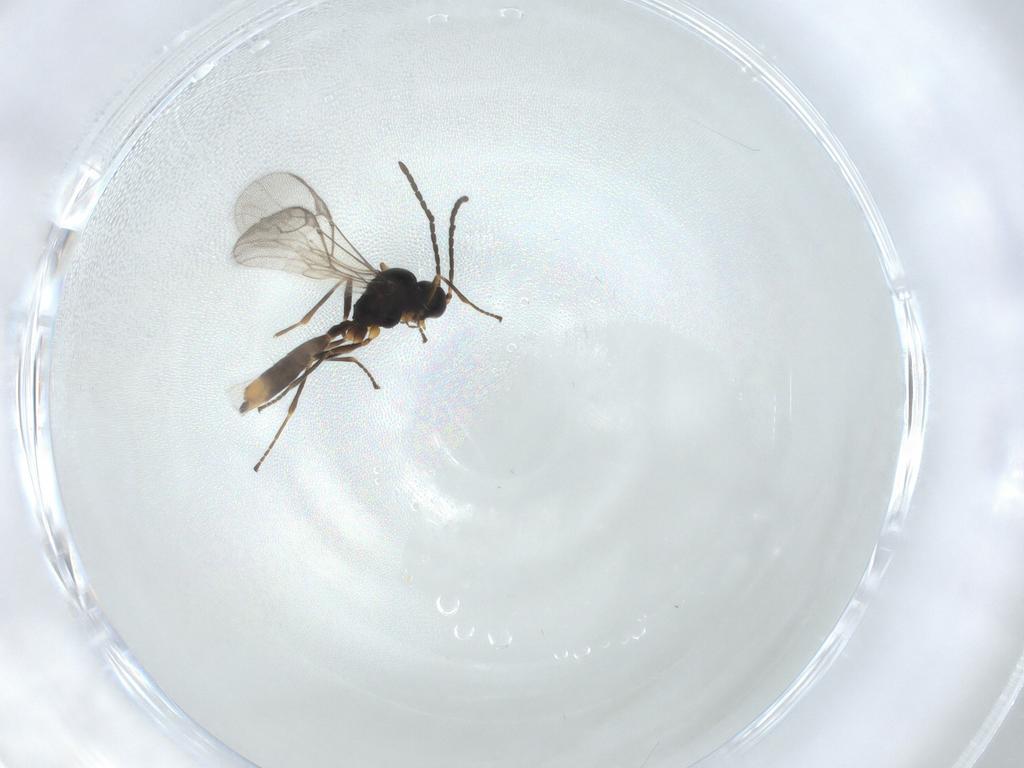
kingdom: Animalia
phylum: Arthropoda
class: Insecta
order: Hymenoptera
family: Braconidae
